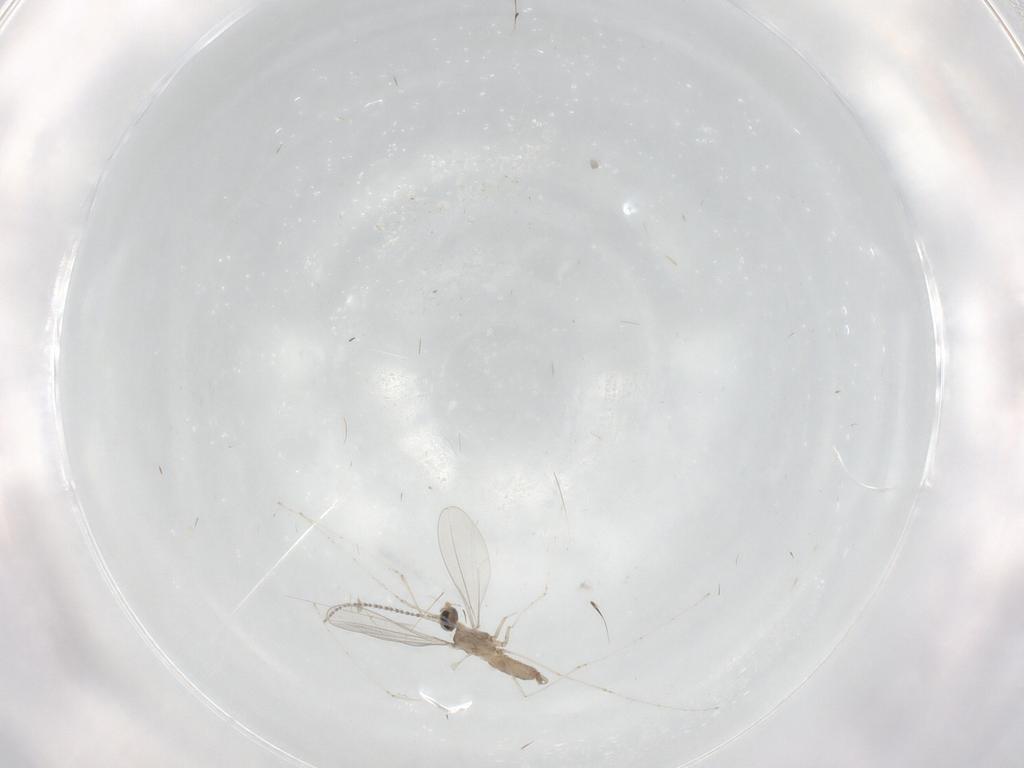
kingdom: Animalia
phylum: Arthropoda
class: Insecta
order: Diptera
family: Cecidomyiidae
